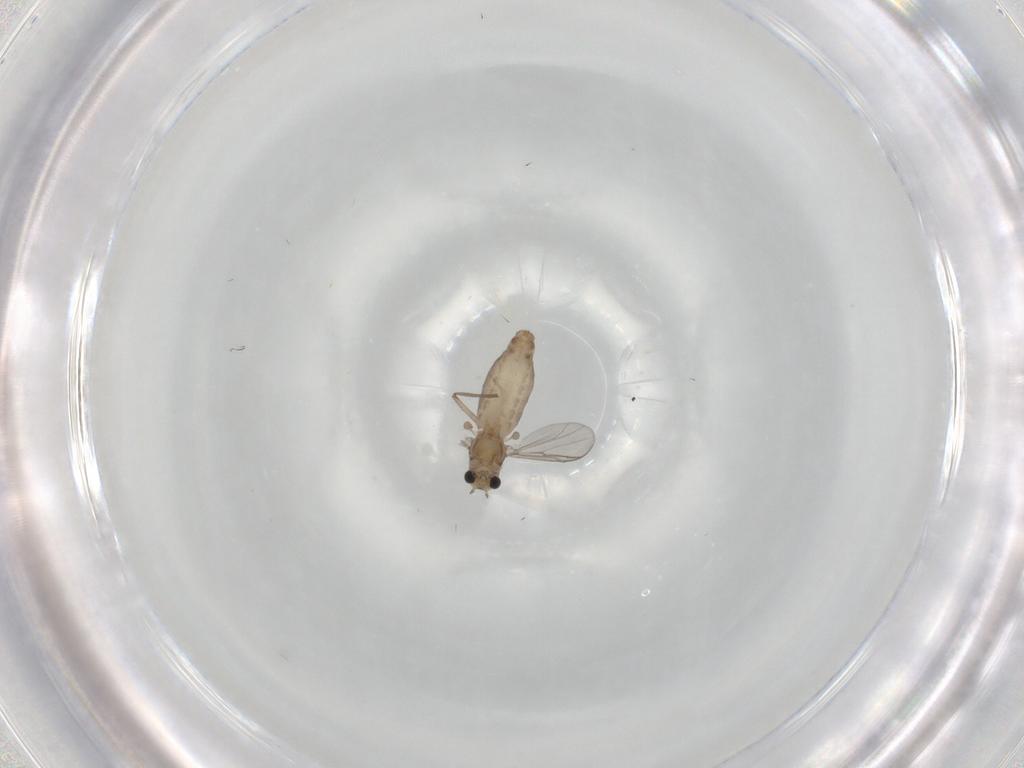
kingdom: Animalia
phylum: Arthropoda
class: Insecta
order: Diptera
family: Chironomidae
